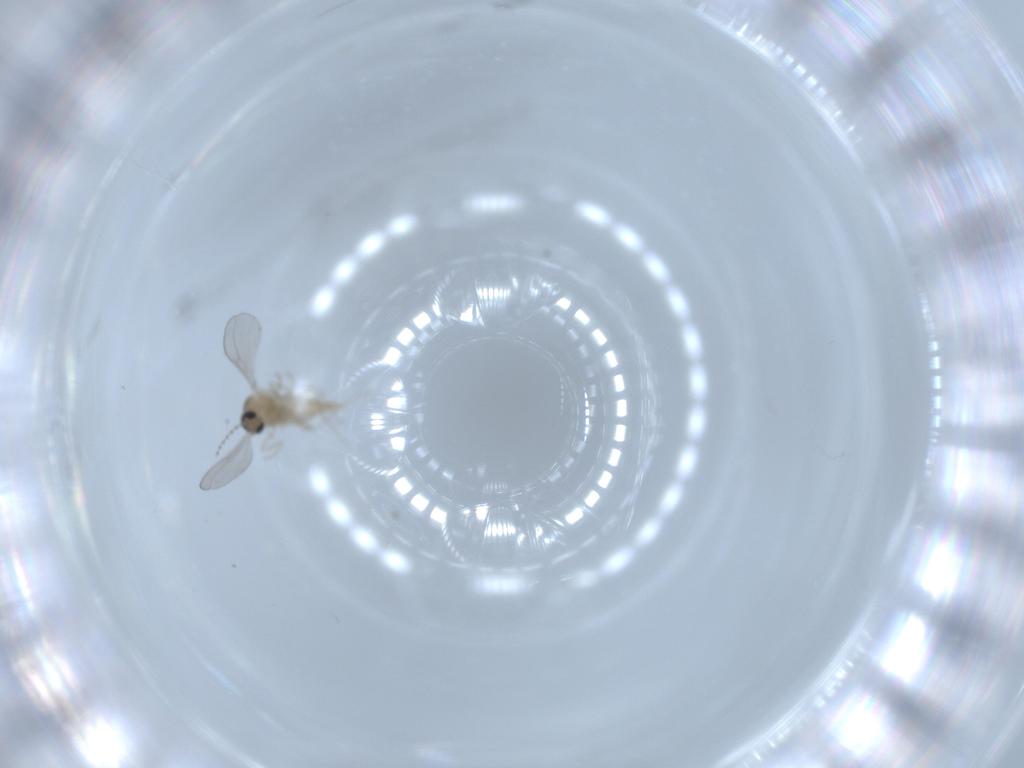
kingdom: Animalia
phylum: Arthropoda
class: Insecta
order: Diptera
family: Cecidomyiidae
